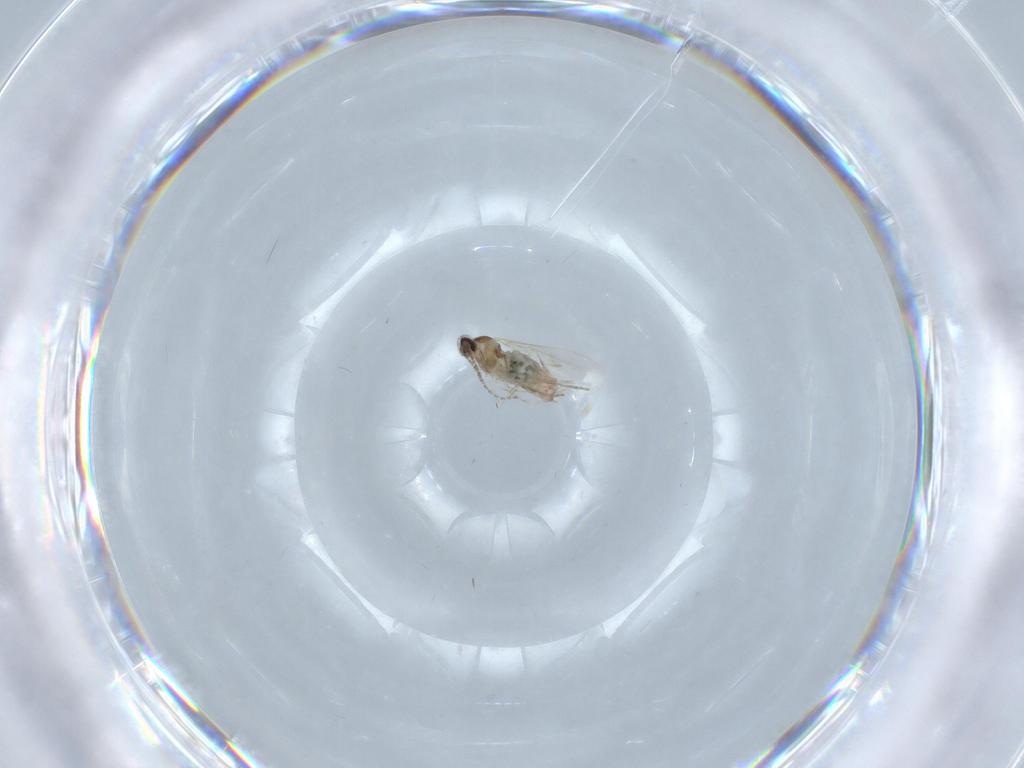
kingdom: Animalia
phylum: Arthropoda
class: Insecta
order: Diptera
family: Cecidomyiidae
